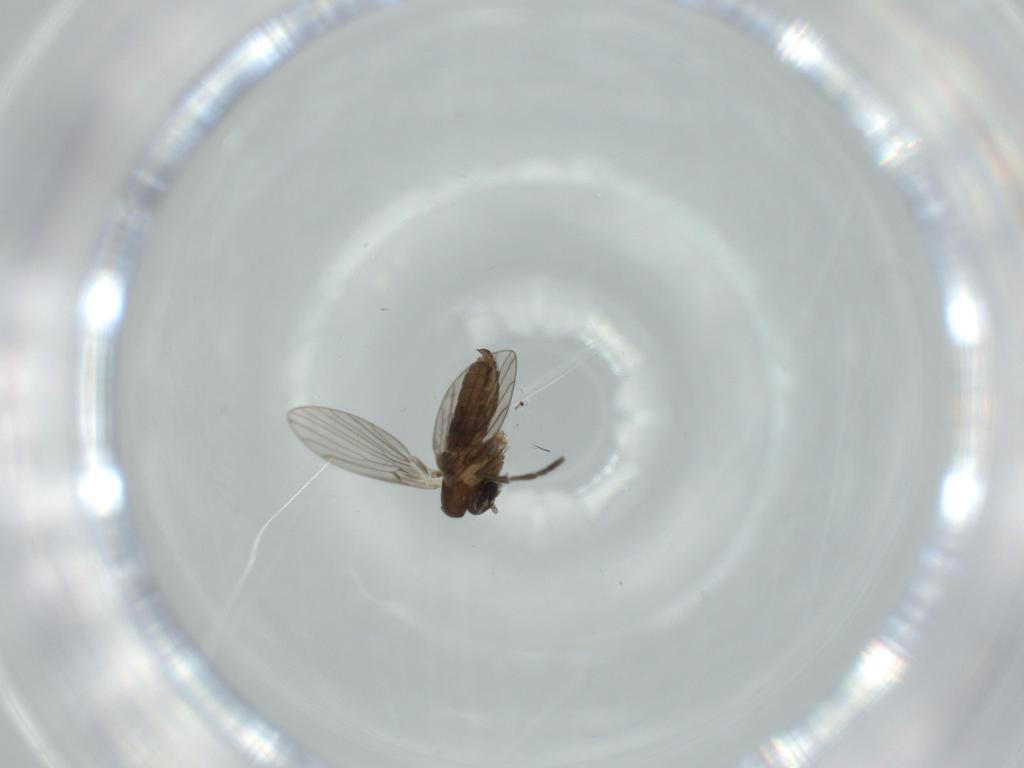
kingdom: Animalia
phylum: Arthropoda
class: Insecta
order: Diptera
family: Psychodidae
